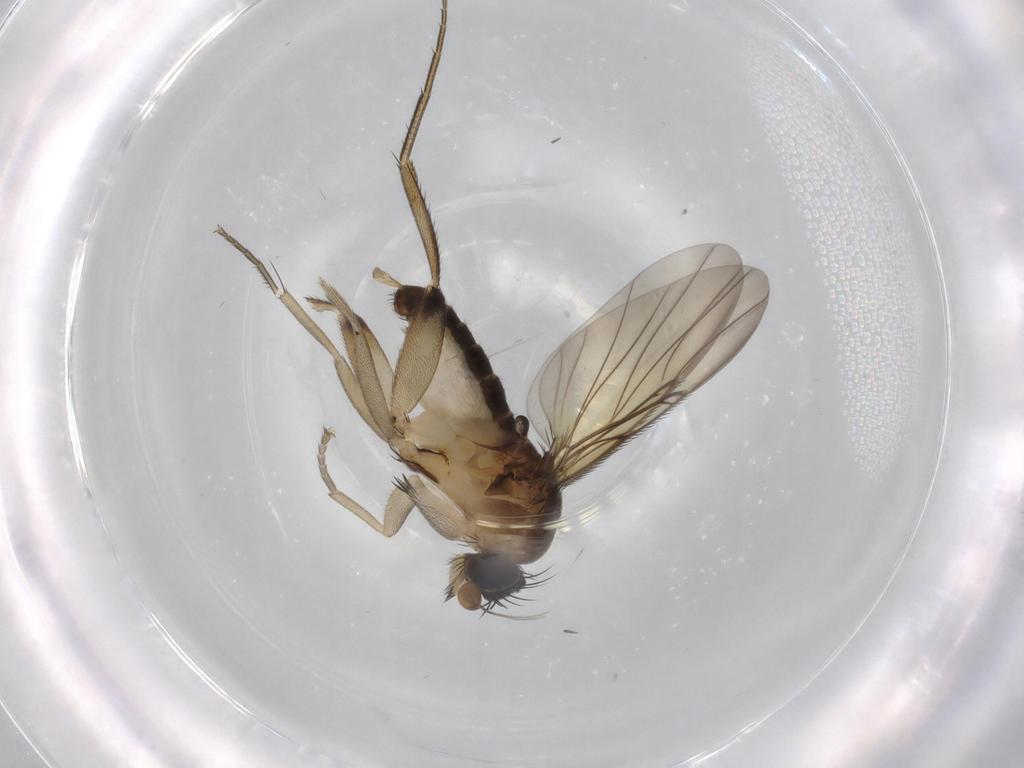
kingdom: Animalia
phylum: Arthropoda
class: Insecta
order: Diptera
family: Phoridae
